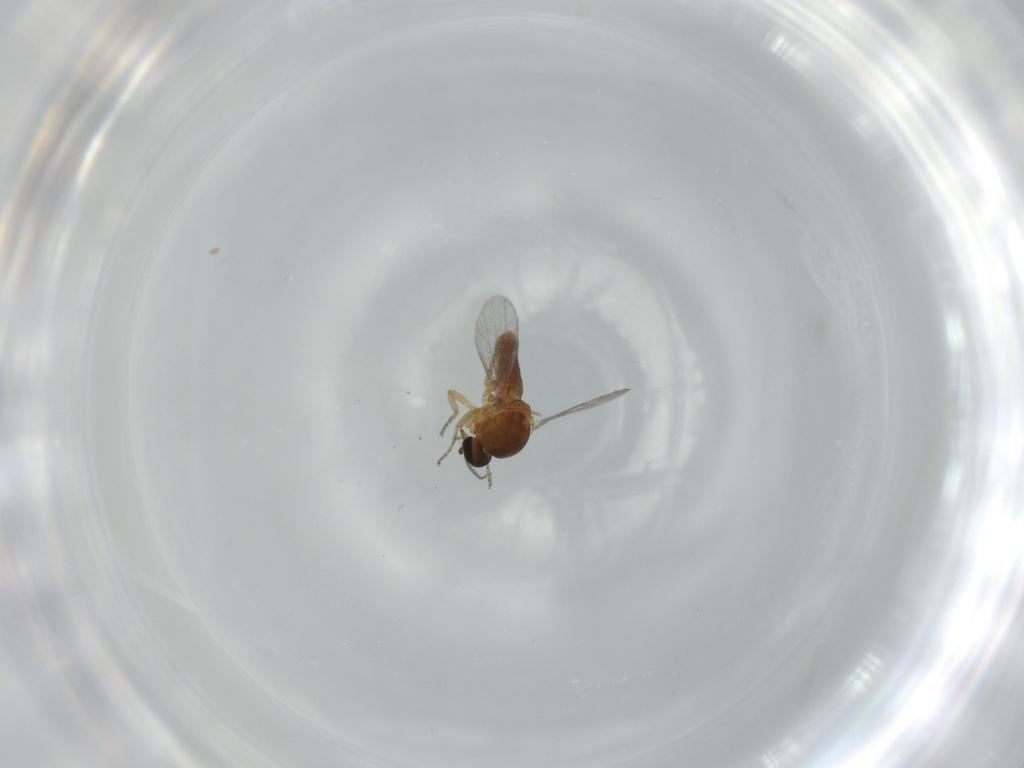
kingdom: Animalia
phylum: Arthropoda
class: Insecta
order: Diptera
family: Ceratopogonidae
